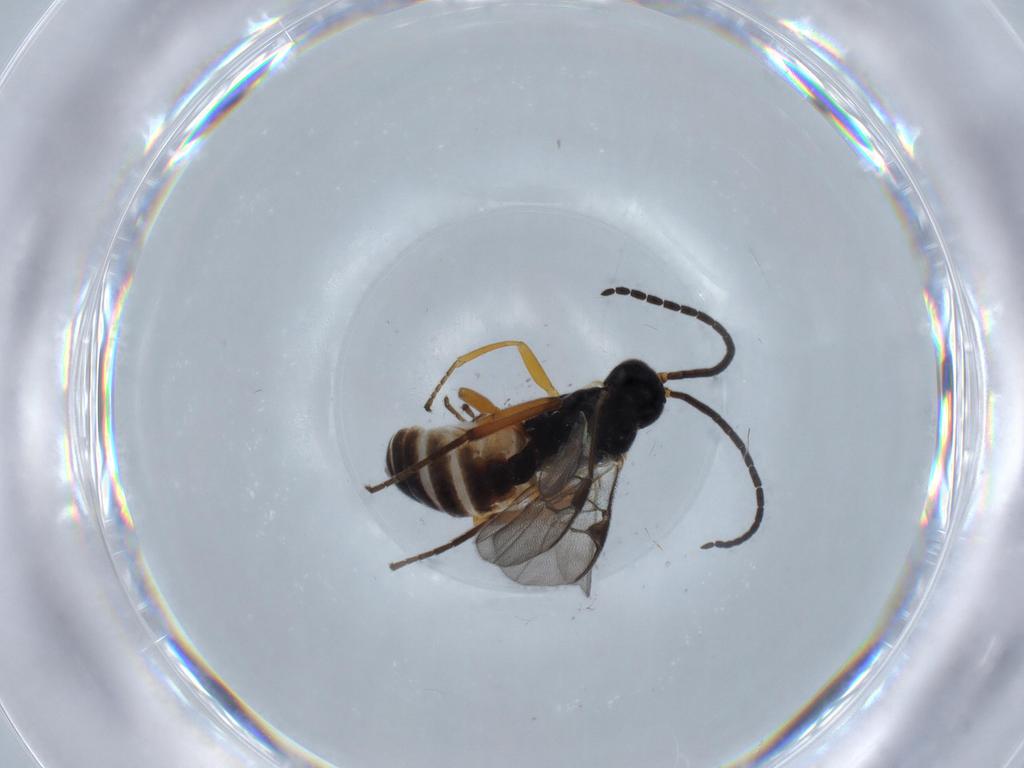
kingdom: Animalia
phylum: Arthropoda
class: Insecta
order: Hymenoptera
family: Braconidae
